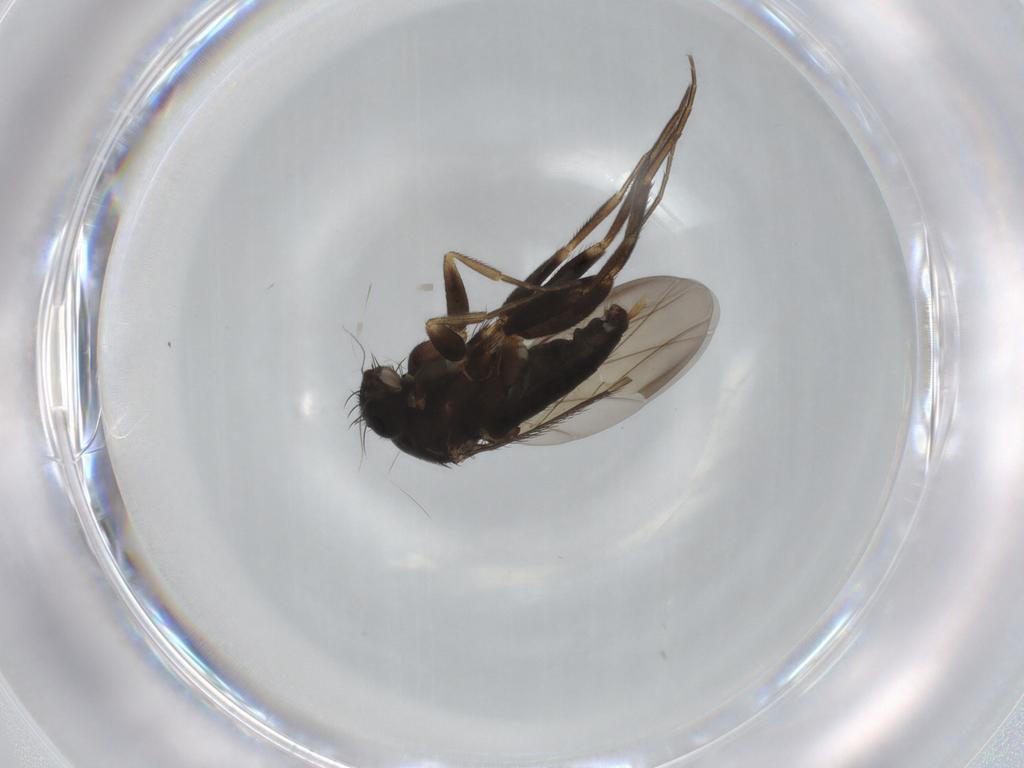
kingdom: Animalia
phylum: Arthropoda
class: Insecta
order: Diptera
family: Phoridae
